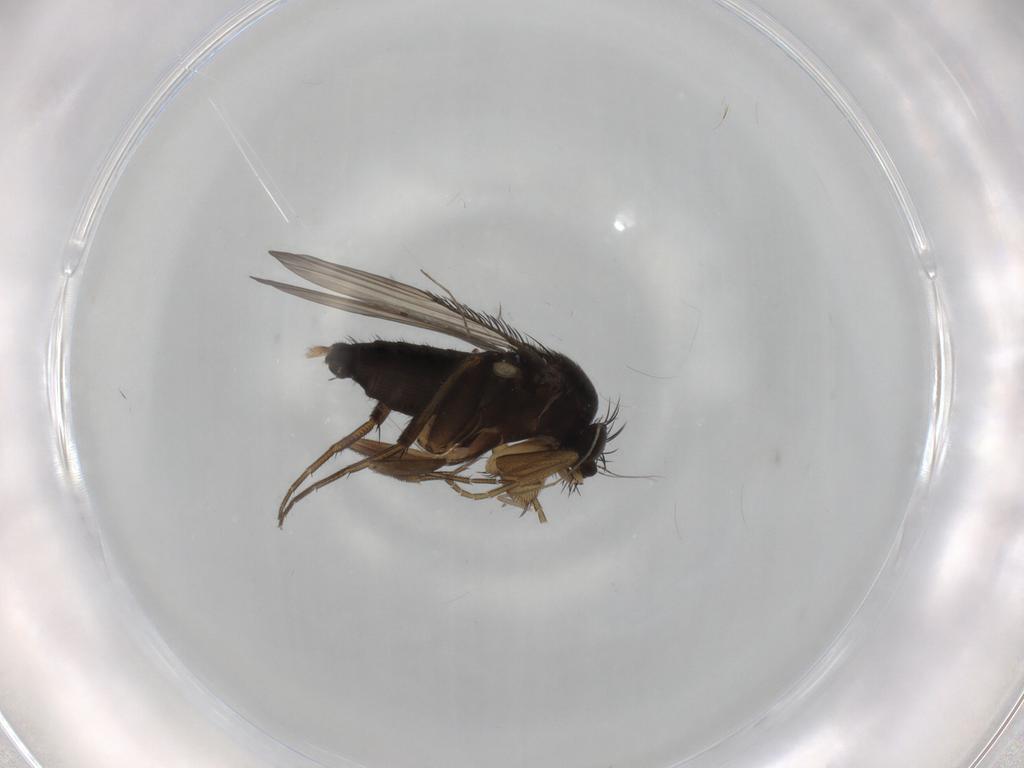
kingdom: Animalia
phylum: Arthropoda
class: Insecta
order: Diptera
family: Phoridae
